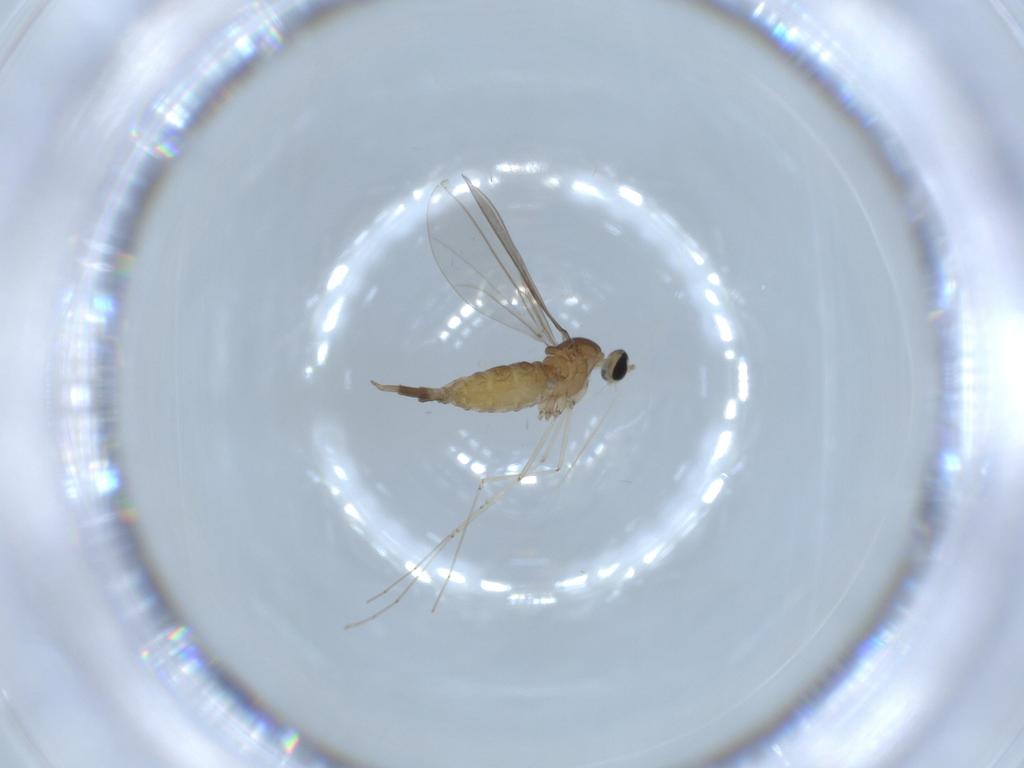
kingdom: Animalia
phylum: Arthropoda
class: Insecta
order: Diptera
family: Cecidomyiidae
